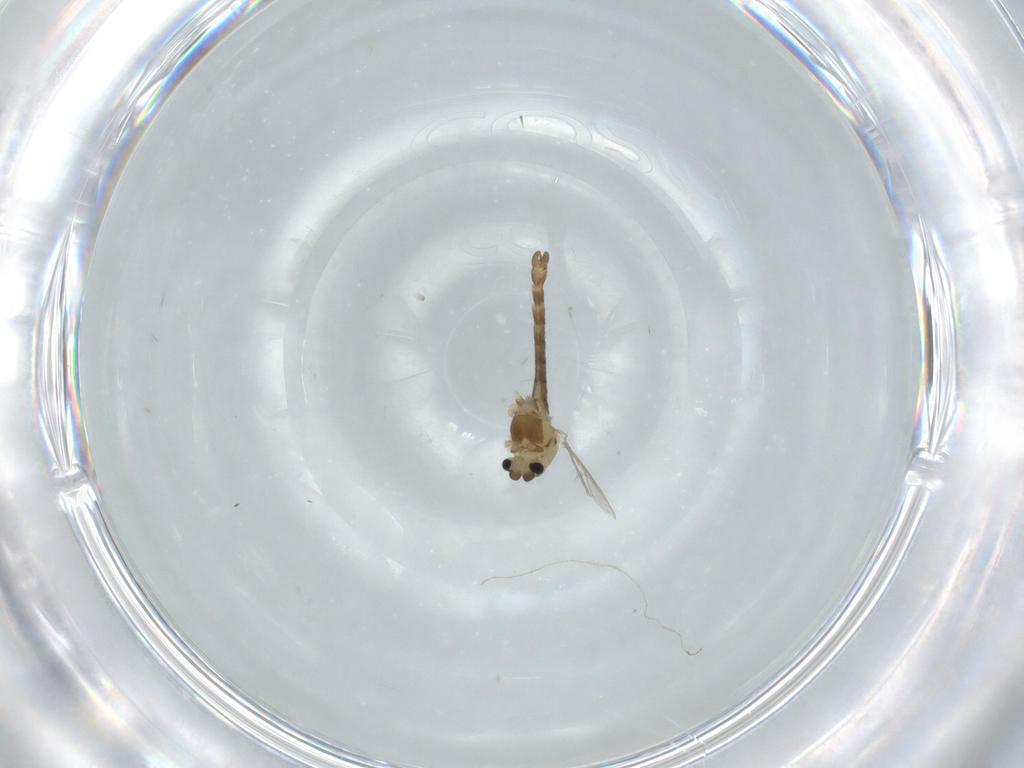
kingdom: Animalia
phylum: Arthropoda
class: Insecta
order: Diptera
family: Chironomidae
